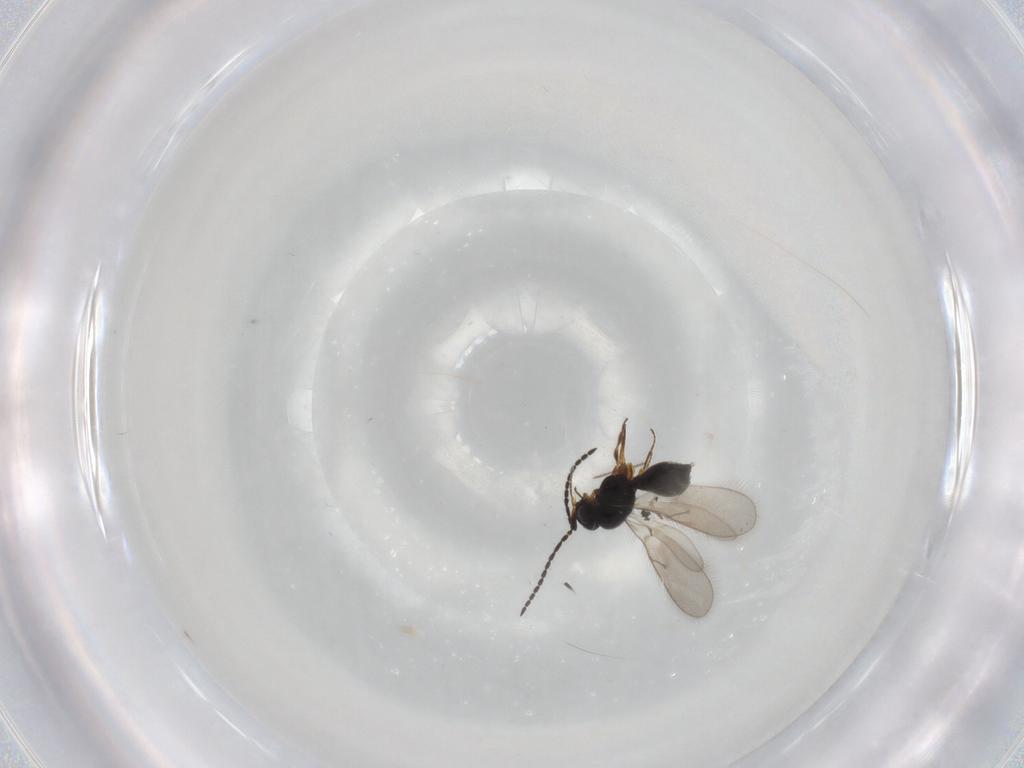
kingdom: Animalia
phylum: Arthropoda
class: Insecta
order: Hymenoptera
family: Scelionidae
